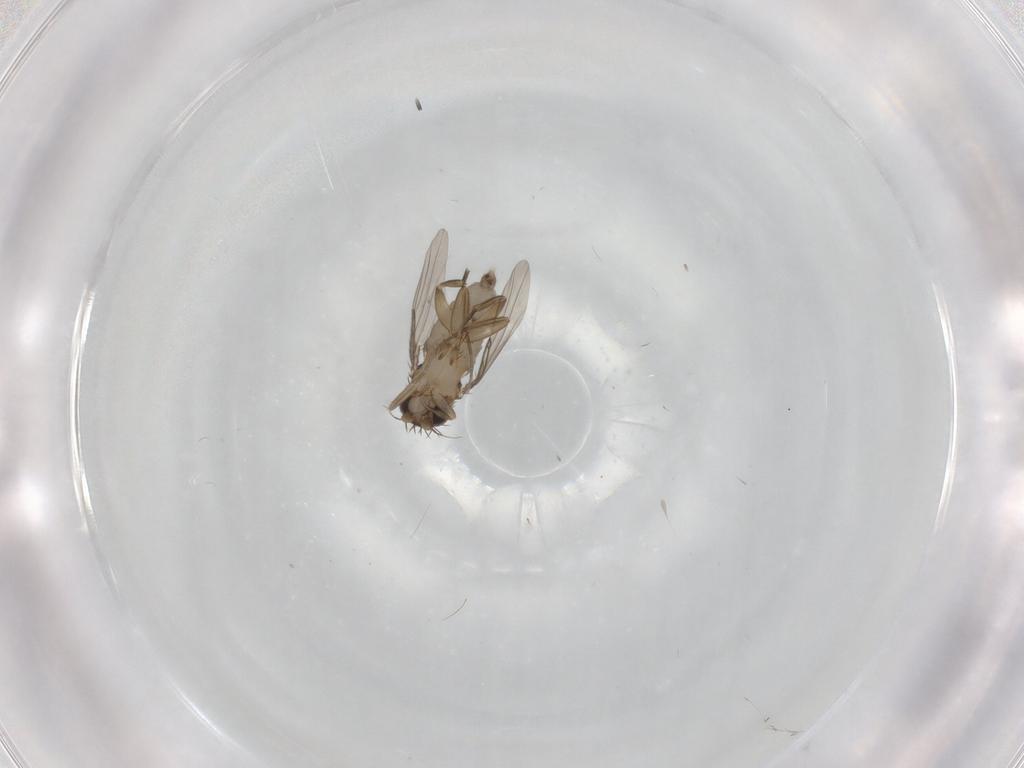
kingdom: Animalia
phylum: Arthropoda
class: Insecta
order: Diptera
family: Phoridae
